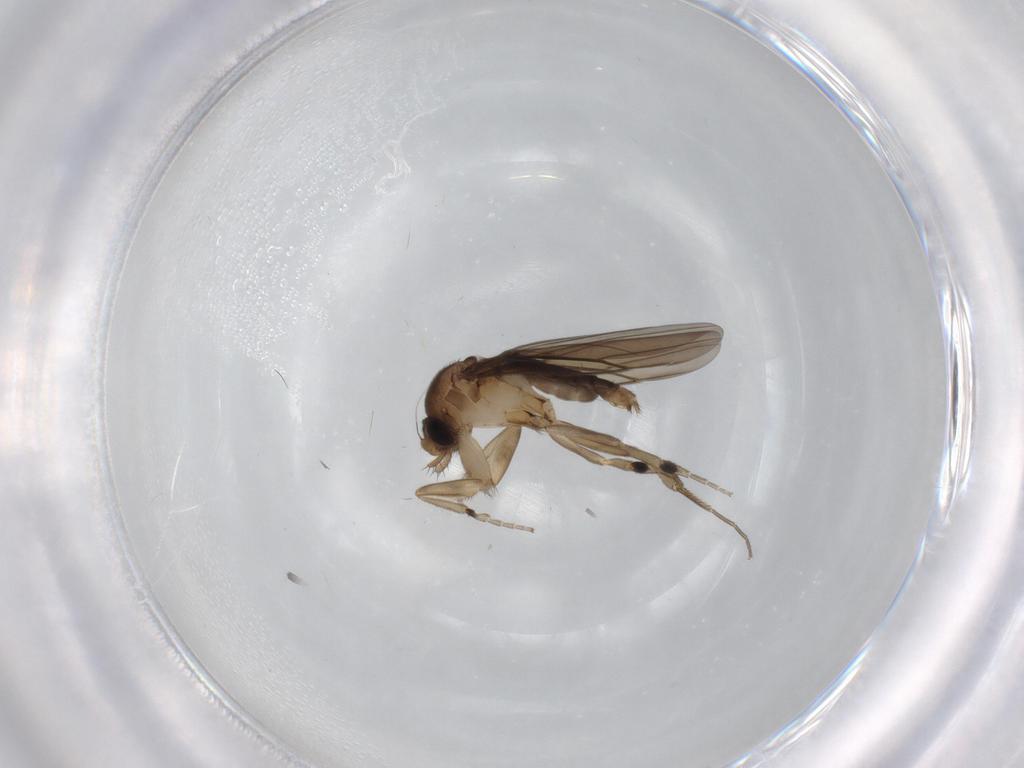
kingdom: Animalia
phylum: Arthropoda
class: Insecta
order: Diptera
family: Phoridae
